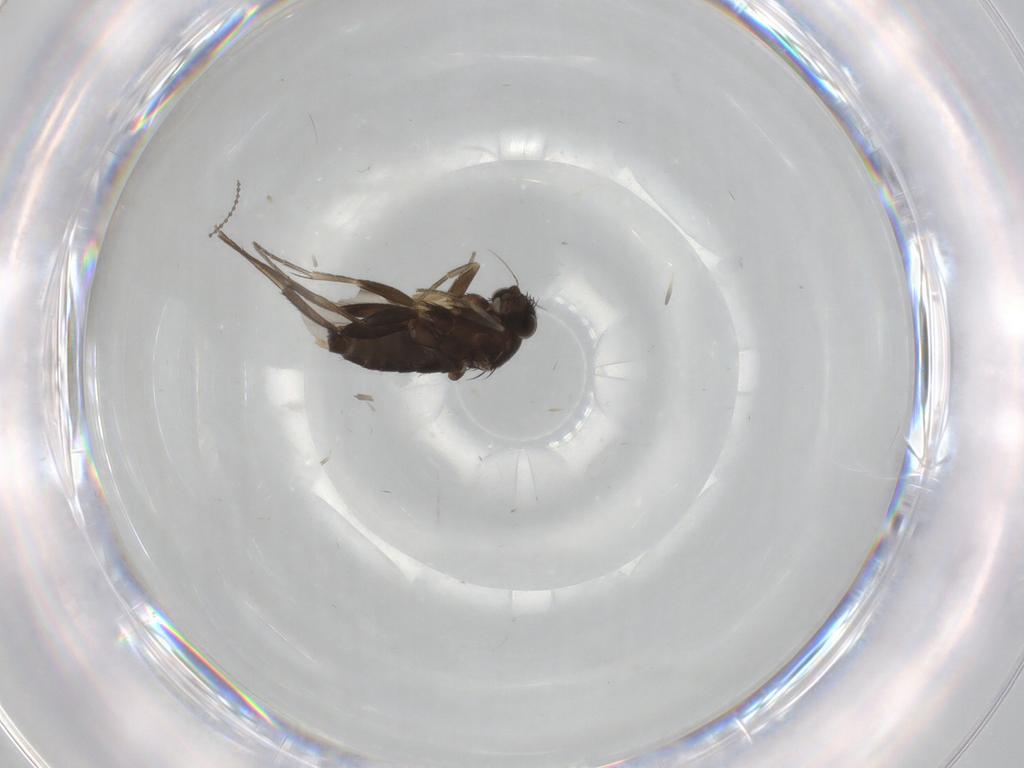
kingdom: Animalia
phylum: Arthropoda
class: Insecta
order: Diptera
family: Phoridae
